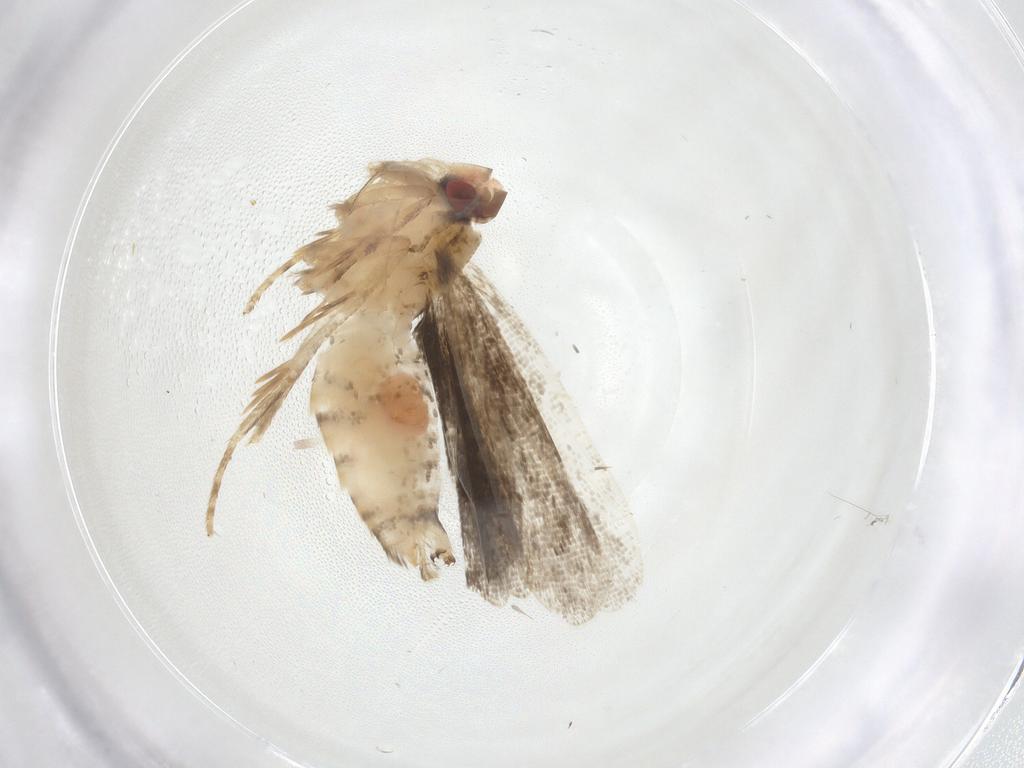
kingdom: Animalia
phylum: Arthropoda
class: Insecta
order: Lepidoptera
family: Gelechiidae
